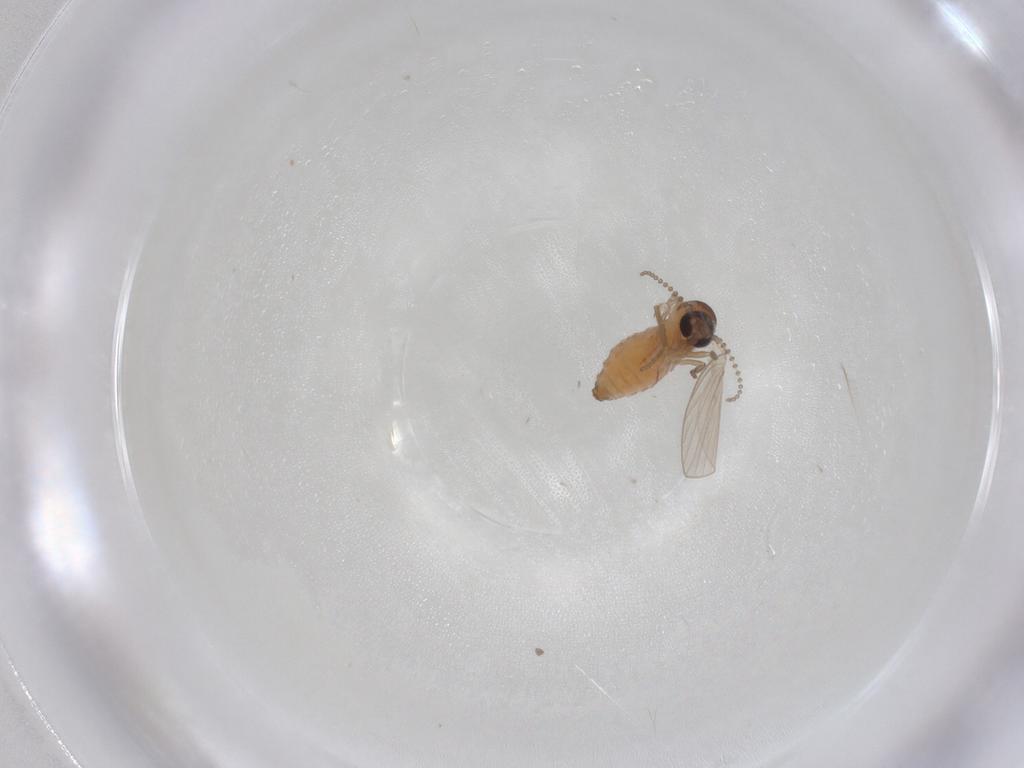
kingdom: Animalia
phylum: Arthropoda
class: Insecta
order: Diptera
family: Psychodidae
